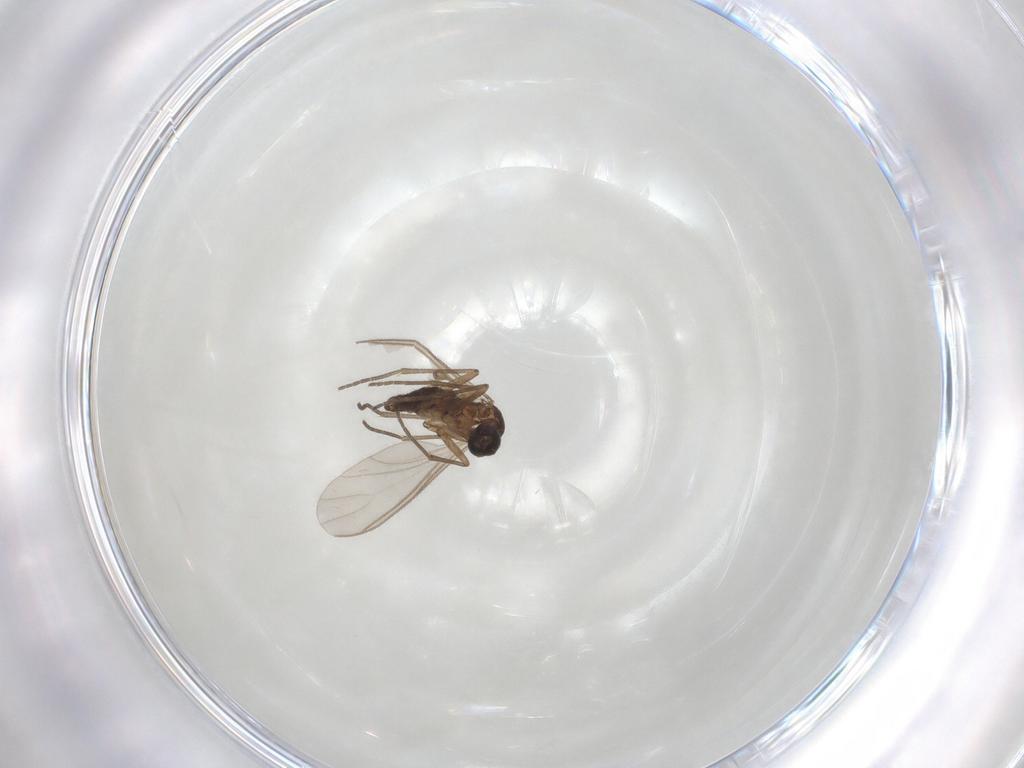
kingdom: Animalia
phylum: Arthropoda
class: Insecta
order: Diptera
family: Sciaridae
